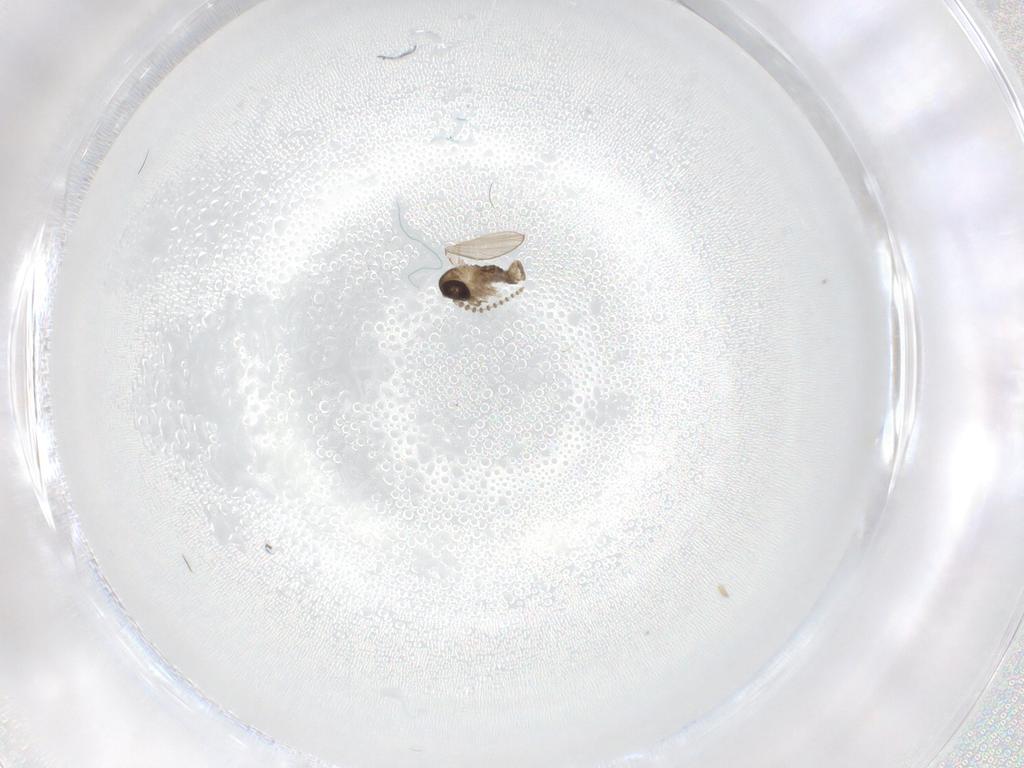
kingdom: Animalia
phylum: Arthropoda
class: Insecta
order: Diptera
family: Psychodidae
